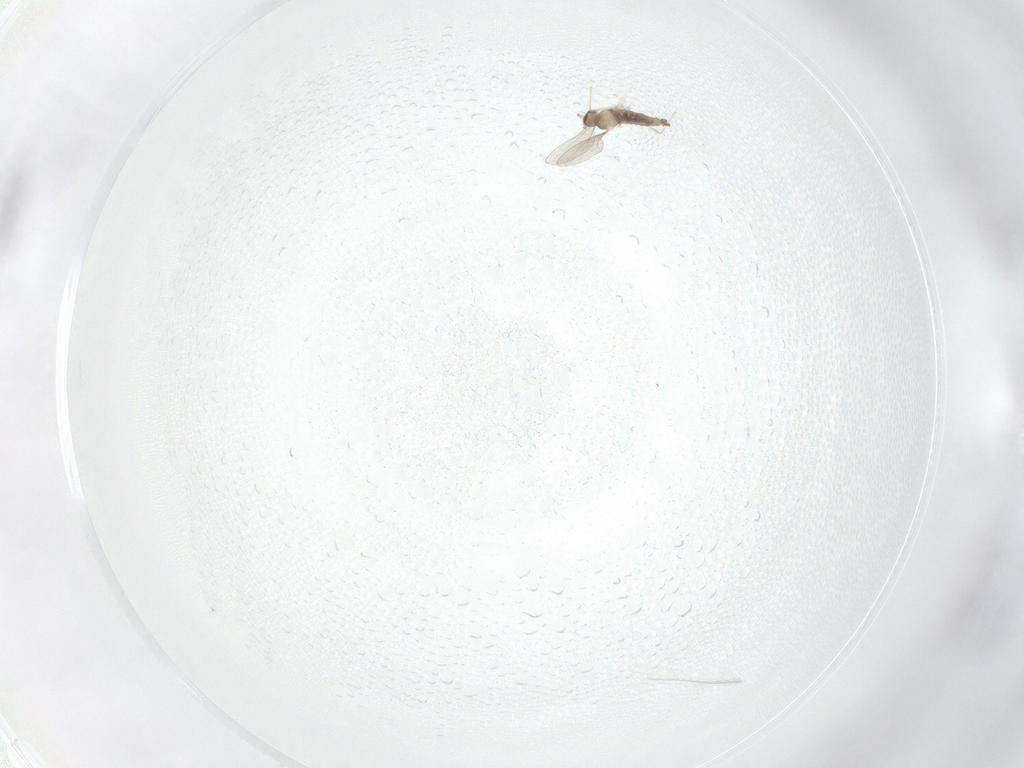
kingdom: Animalia
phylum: Arthropoda
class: Insecta
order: Diptera
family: Cecidomyiidae
